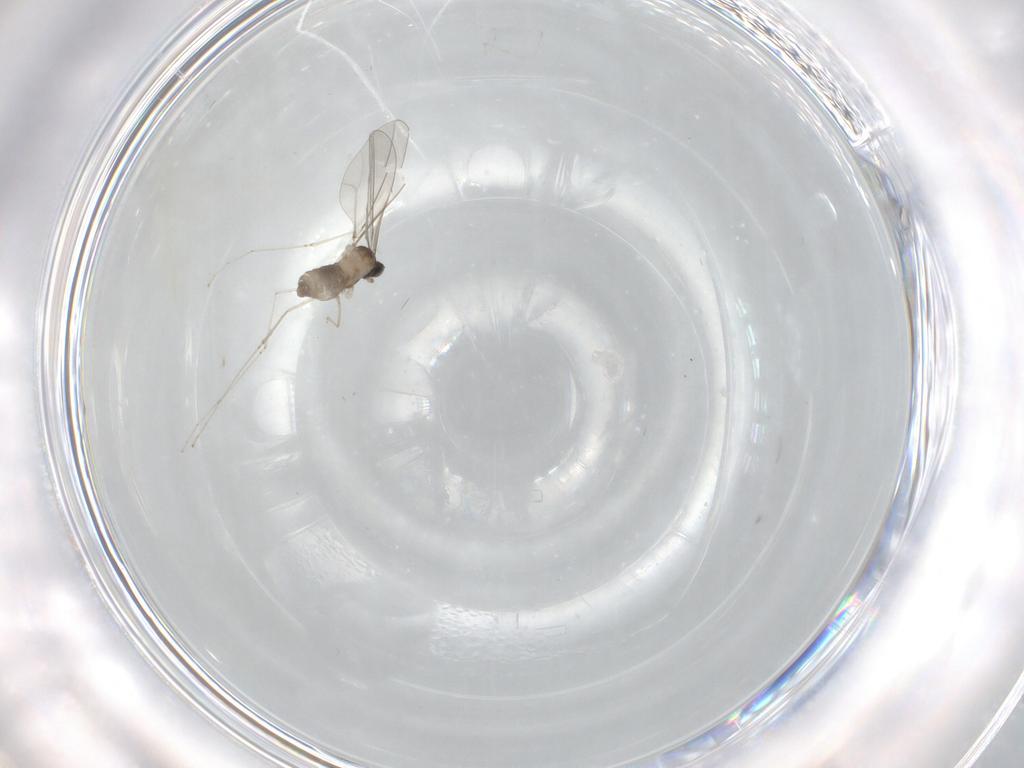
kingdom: Animalia
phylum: Arthropoda
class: Insecta
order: Diptera
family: Cecidomyiidae
